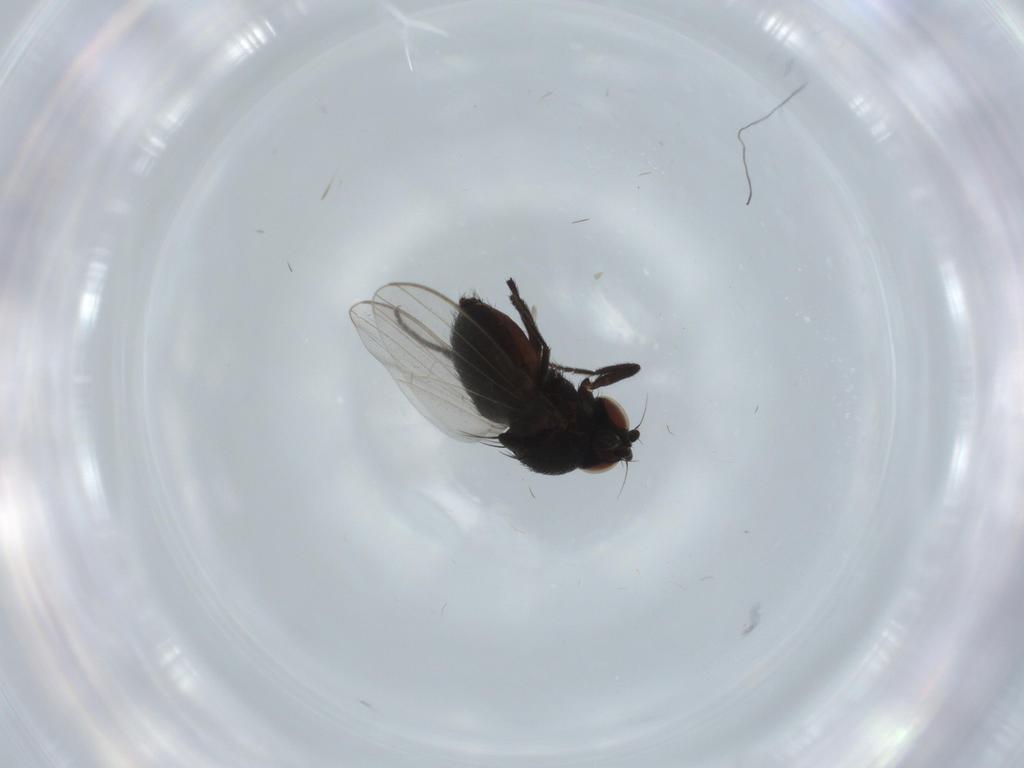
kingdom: Animalia
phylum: Arthropoda
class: Insecta
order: Diptera
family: Milichiidae
